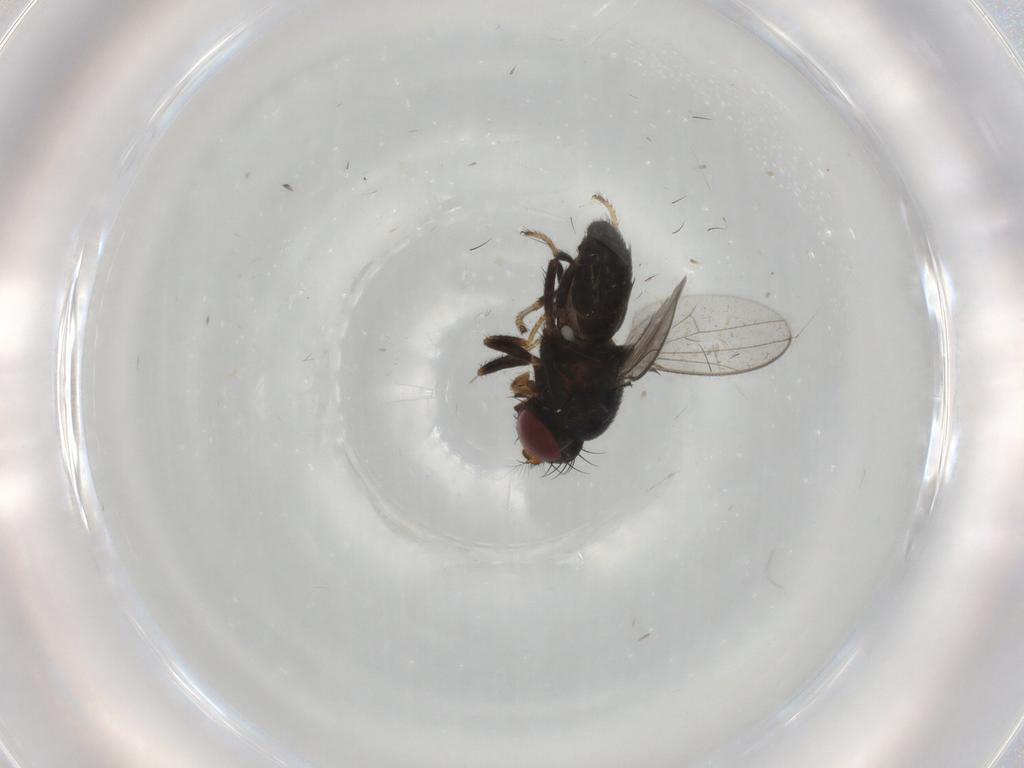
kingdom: Animalia
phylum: Arthropoda
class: Insecta
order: Diptera
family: Ephydridae
